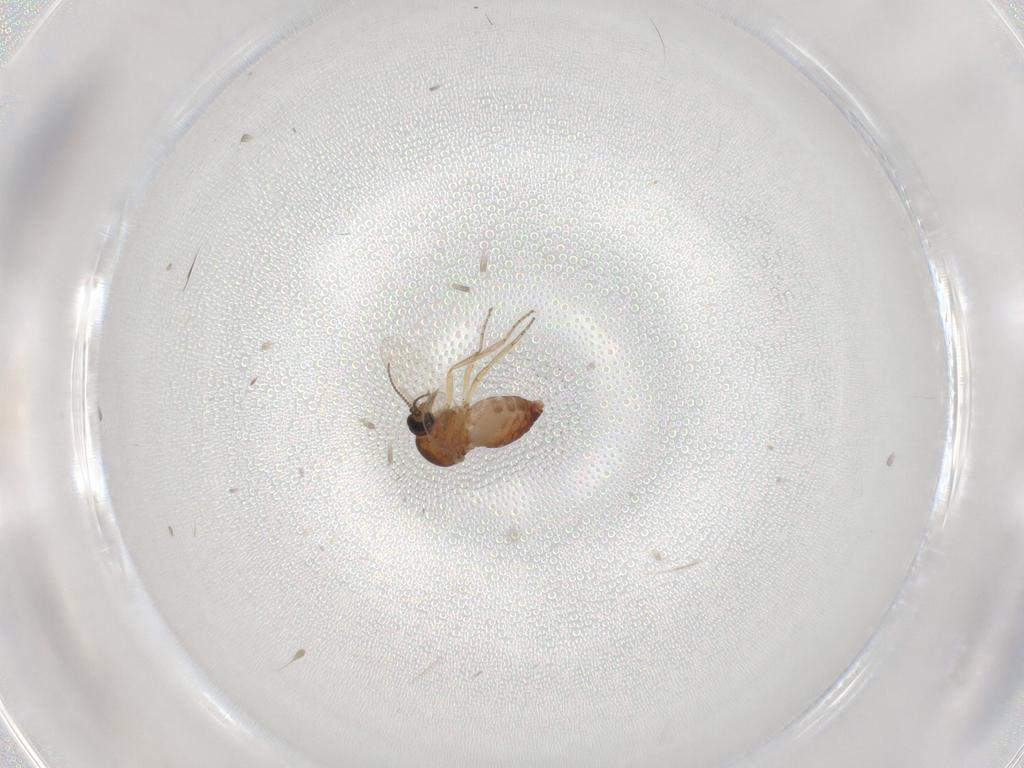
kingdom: Animalia
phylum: Arthropoda
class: Insecta
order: Diptera
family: Ceratopogonidae
